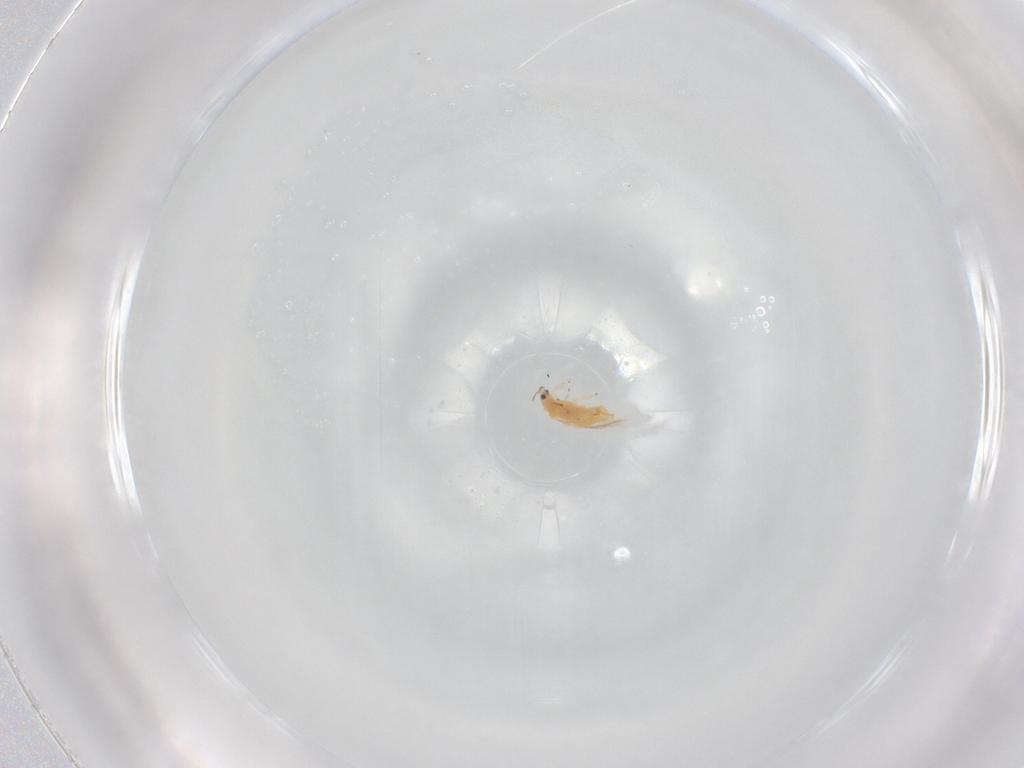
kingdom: Animalia
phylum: Arthropoda
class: Insecta
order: Thysanoptera
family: Thripidae
